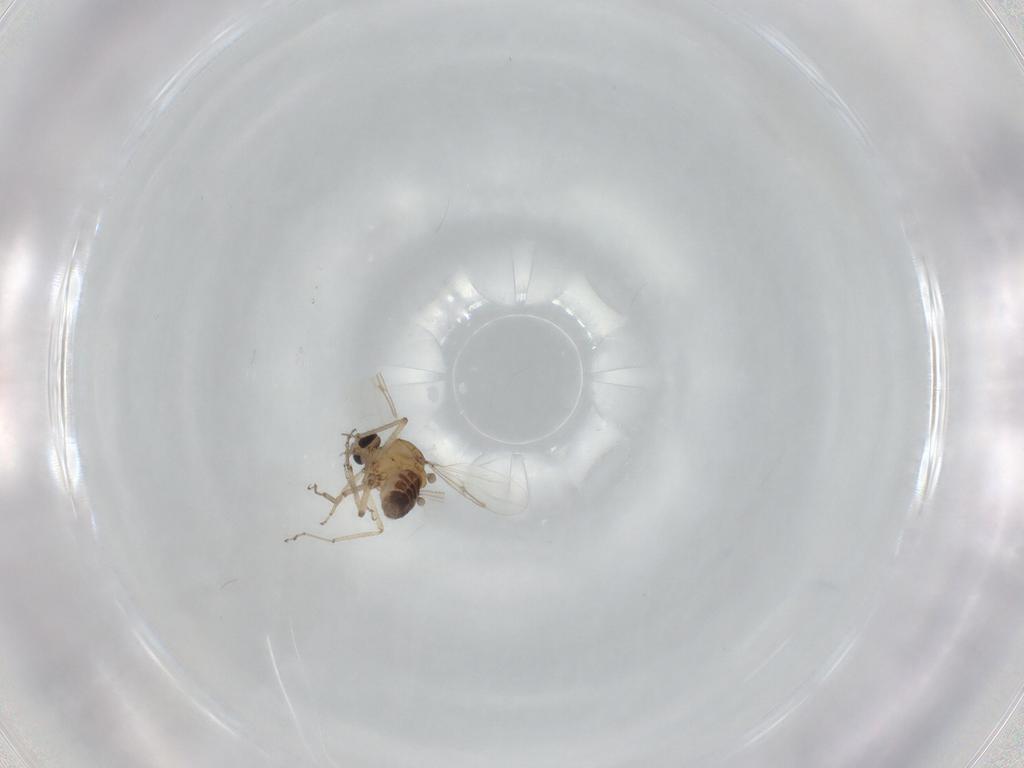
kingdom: Animalia
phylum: Arthropoda
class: Insecta
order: Diptera
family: Ceratopogonidae
